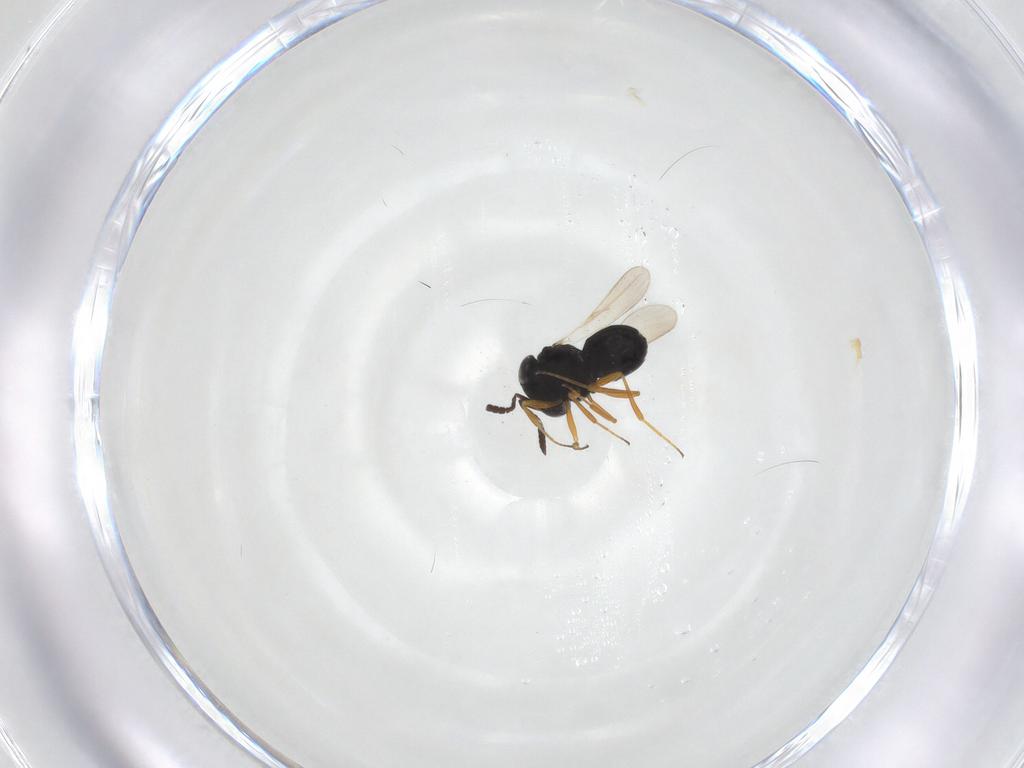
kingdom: Animalia
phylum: Arthropoda
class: Insecta
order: Hymenoptera
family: Scelionidae
